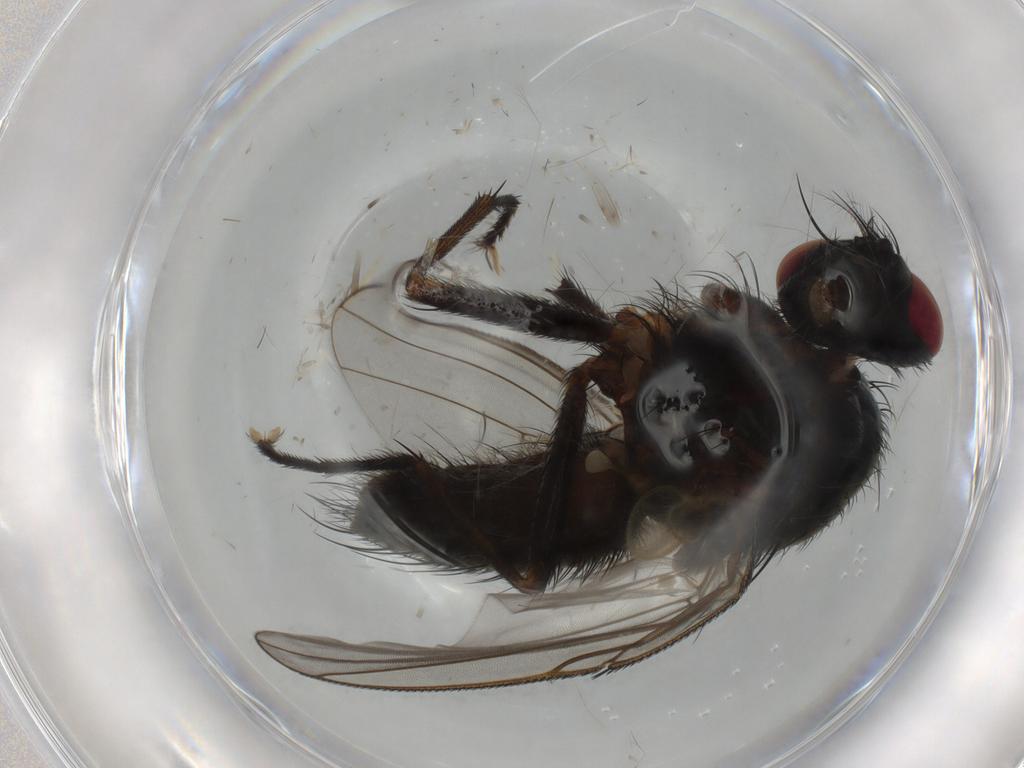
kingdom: Animalia
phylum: Arthropoda
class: Insecta
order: Diptera
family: Muscidae
